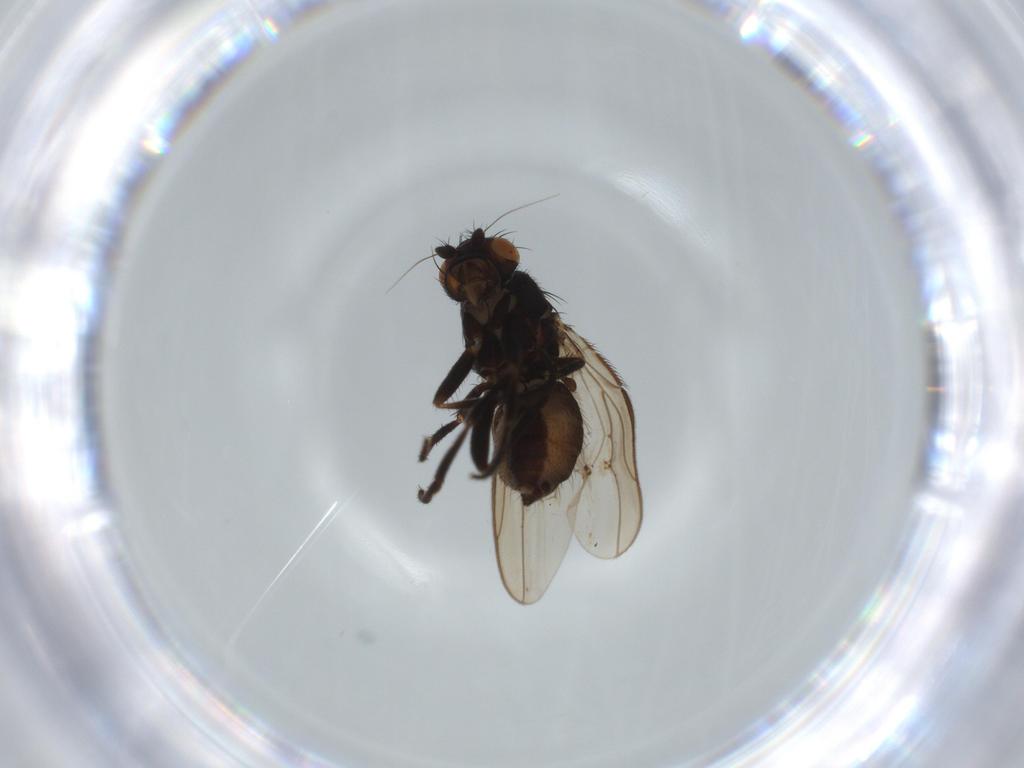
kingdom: Animalia
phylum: Arthropoda
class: Insecta
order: Diptera
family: Sphaeroceridae
